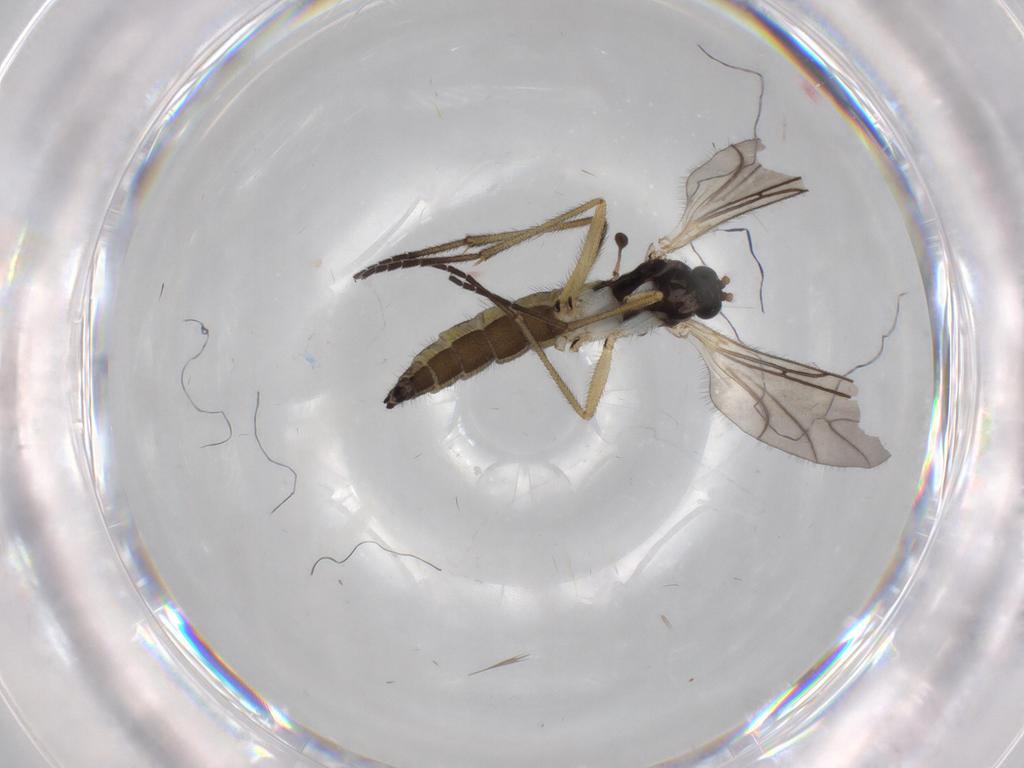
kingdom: Animalia
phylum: Arthropoda
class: Insecta
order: Diptera
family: Sciaridae
